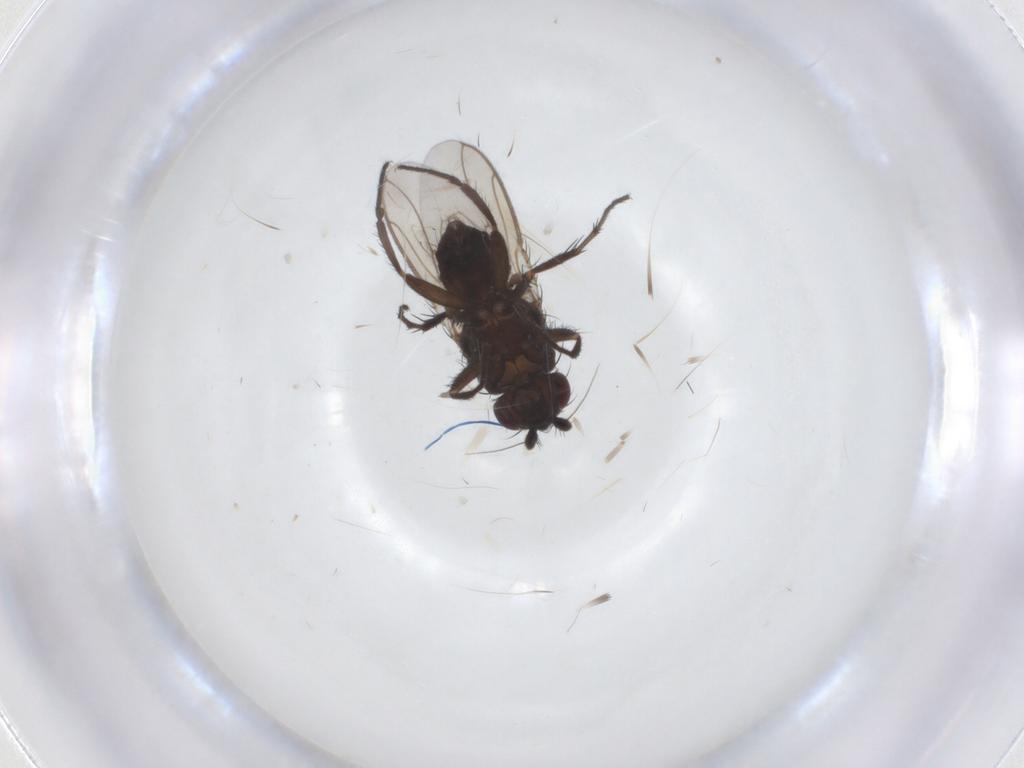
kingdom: Animalia
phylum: Arthropoda
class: Insecta
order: Diptera
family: Sphaeroceridae
